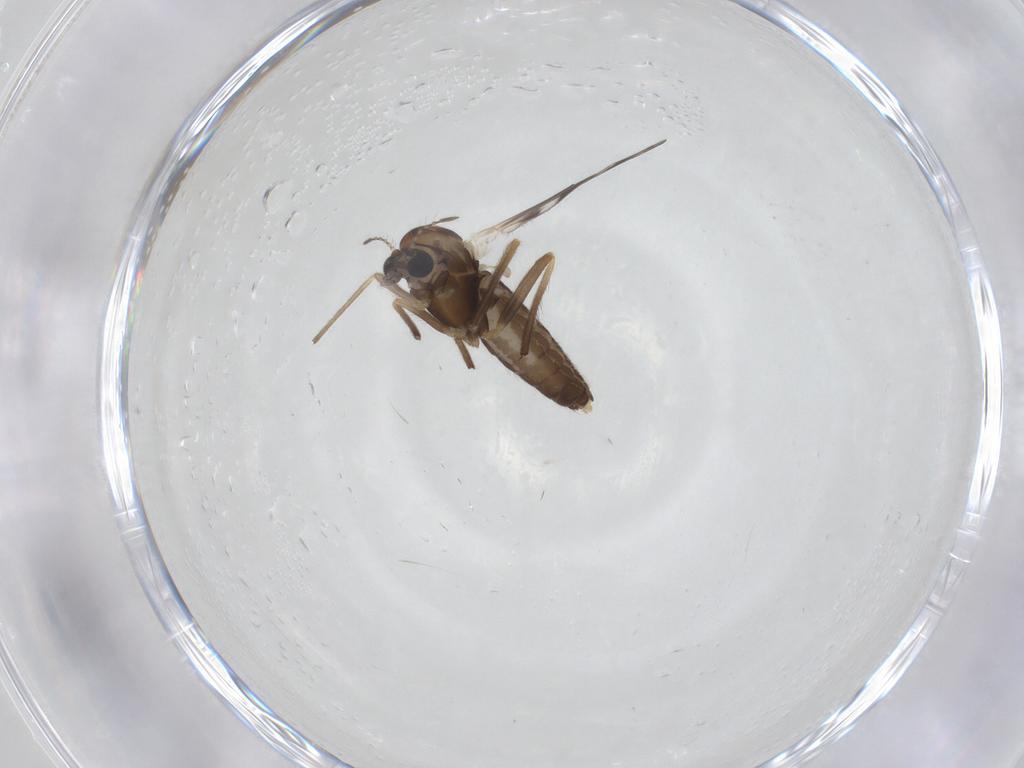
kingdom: Animalia
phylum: Arthropoda
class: Insecta
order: Diptera
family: Chironomidae
